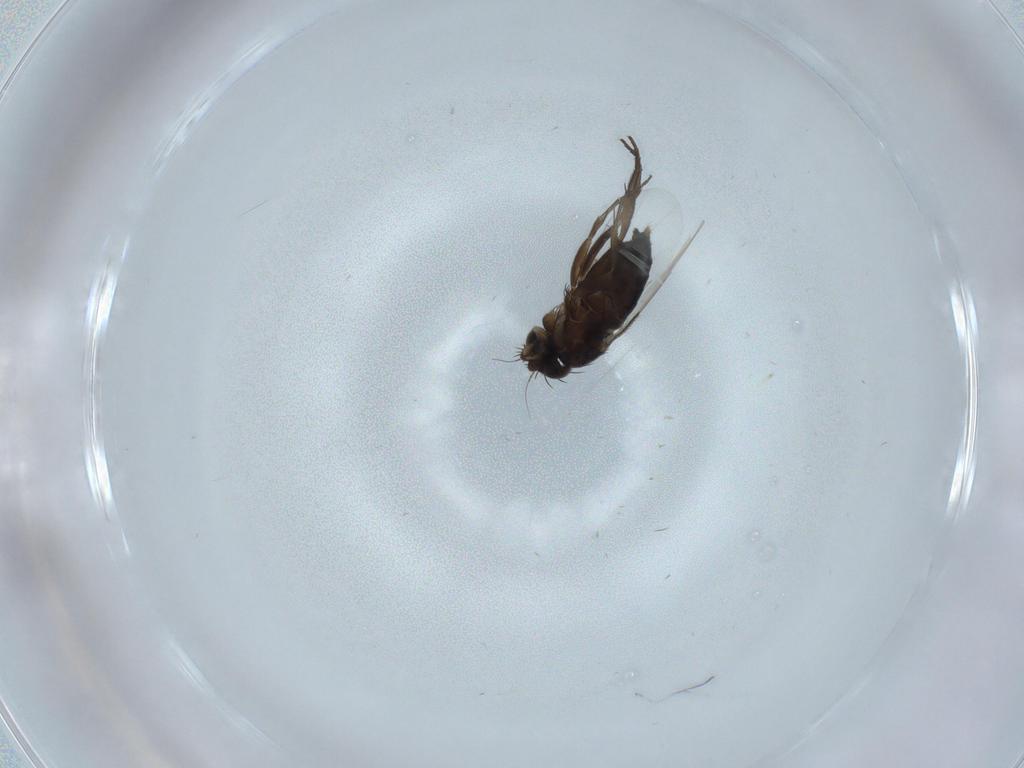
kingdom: Animalia
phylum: Arthropoda
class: Insecta
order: Diptera
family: Phoridae
